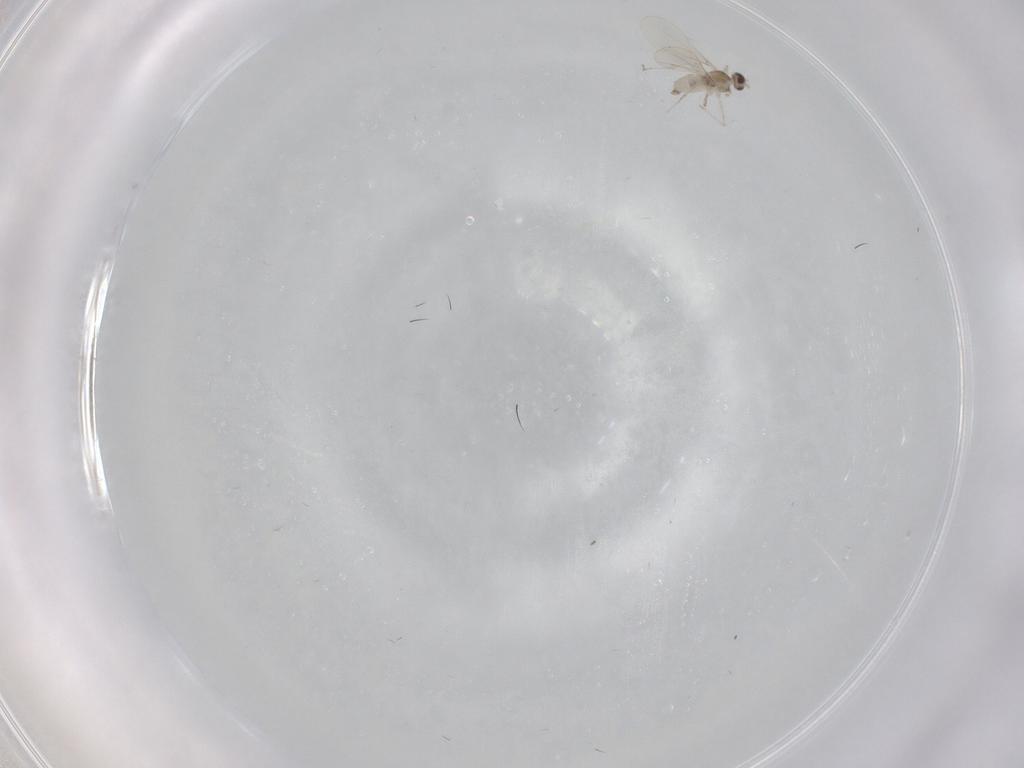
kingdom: Animalia
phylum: Arthropoda
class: Insecta
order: Diptera
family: Cecidomyiidae
